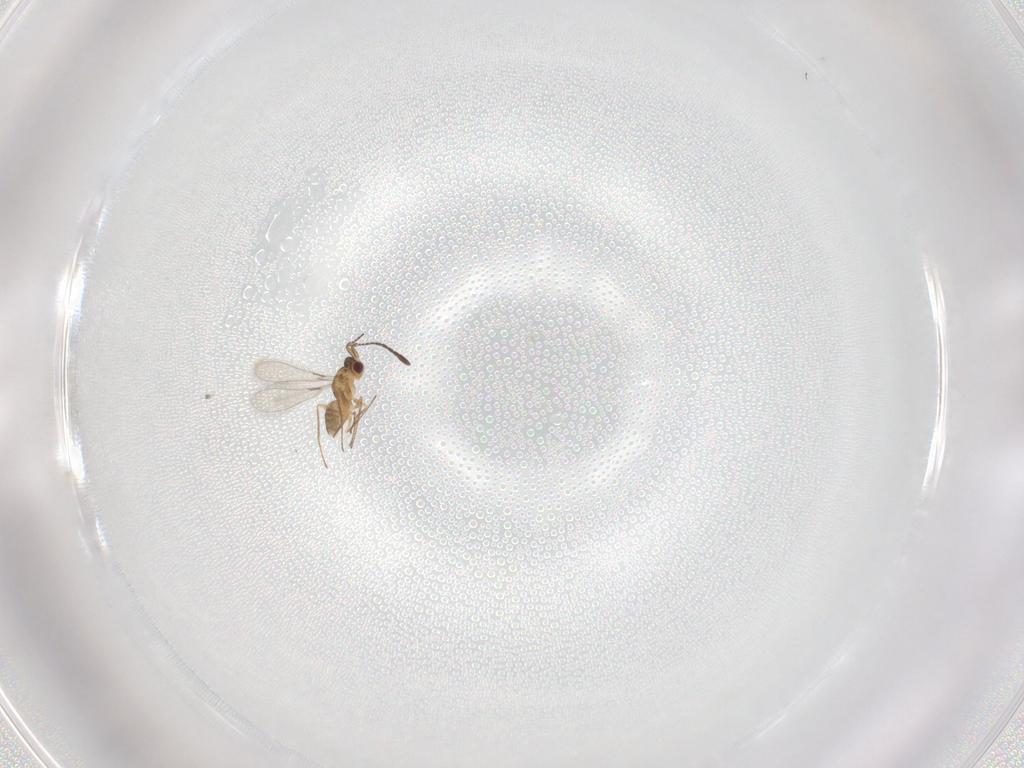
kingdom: Animalia
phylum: Arthropoda
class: Insecta
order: Hymenoptera
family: Mymaridae
